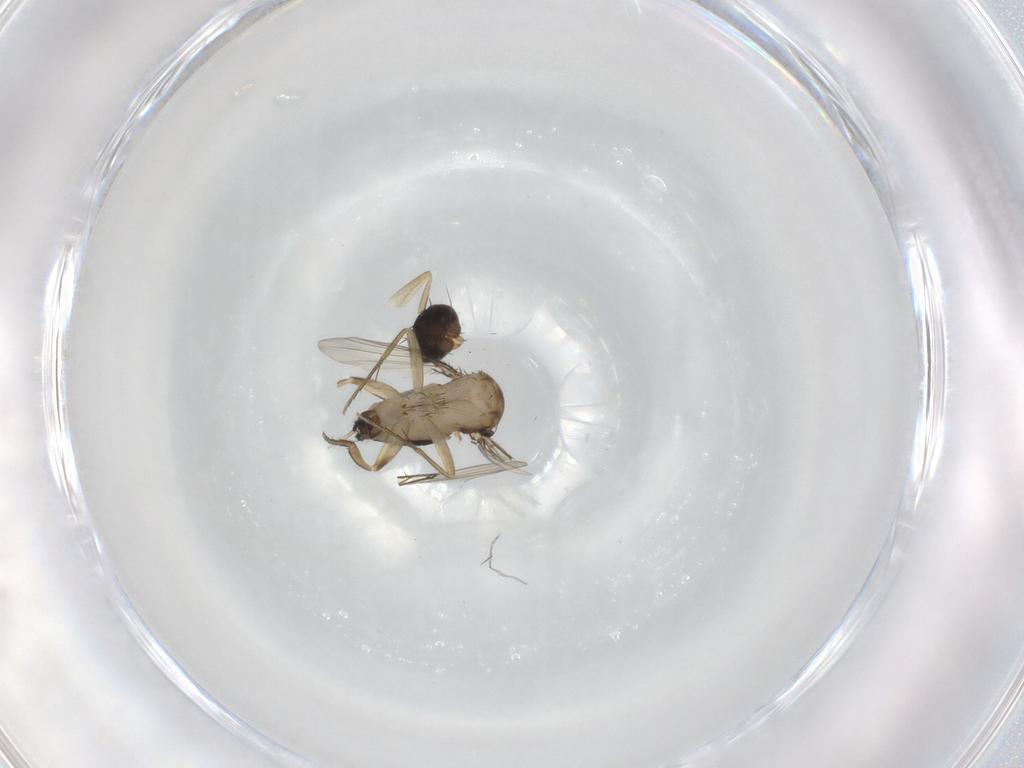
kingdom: Animalia
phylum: Arthropoda
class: Insecta
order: Diptera
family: Phoridae
